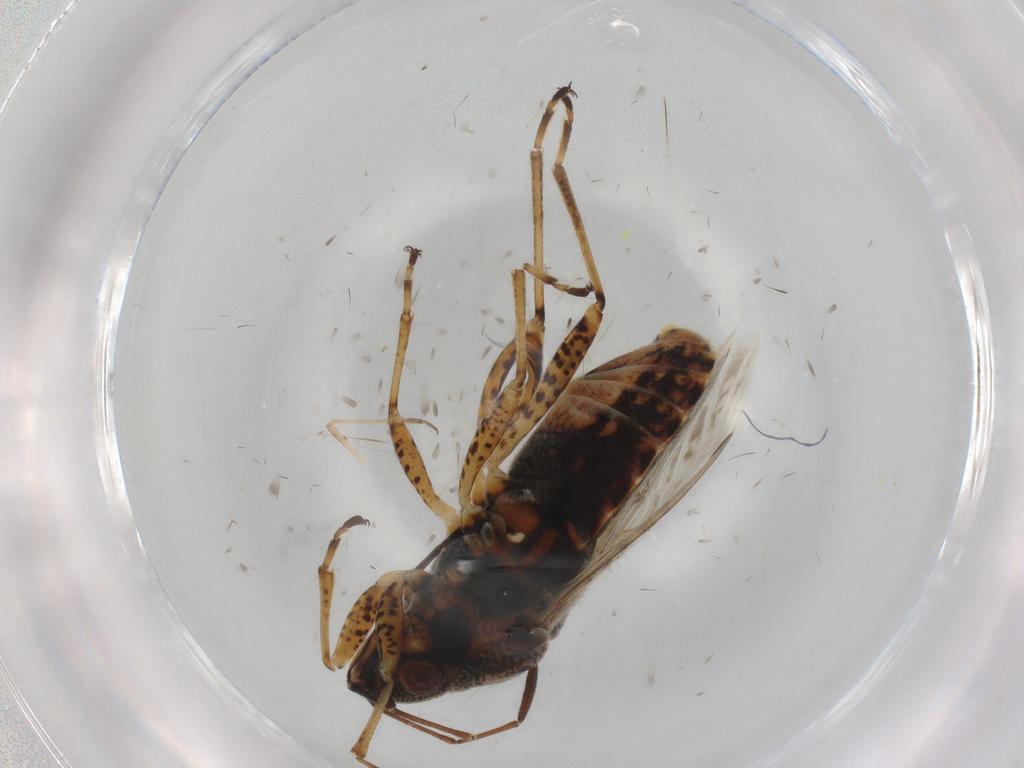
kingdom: Animalia
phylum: Arthropoda
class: Insecta
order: Hemiptera
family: Lygaeidae
